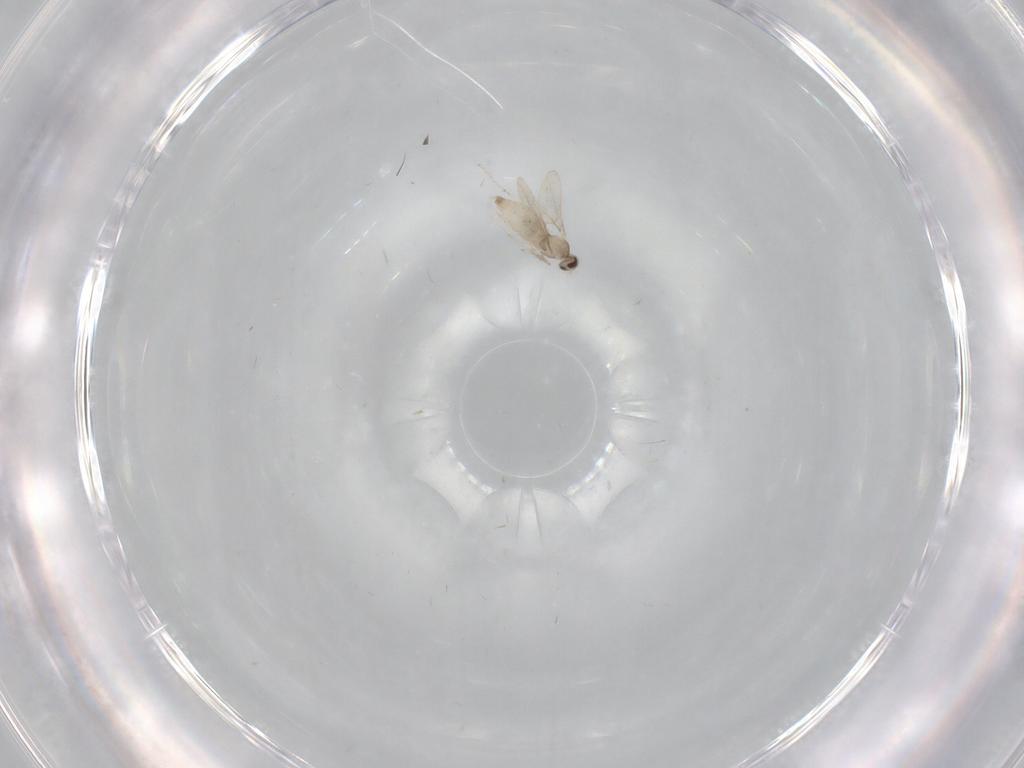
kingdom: Animalia
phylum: Arthropoda
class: Insecta
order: Diptera
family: Cecidomyiidae
